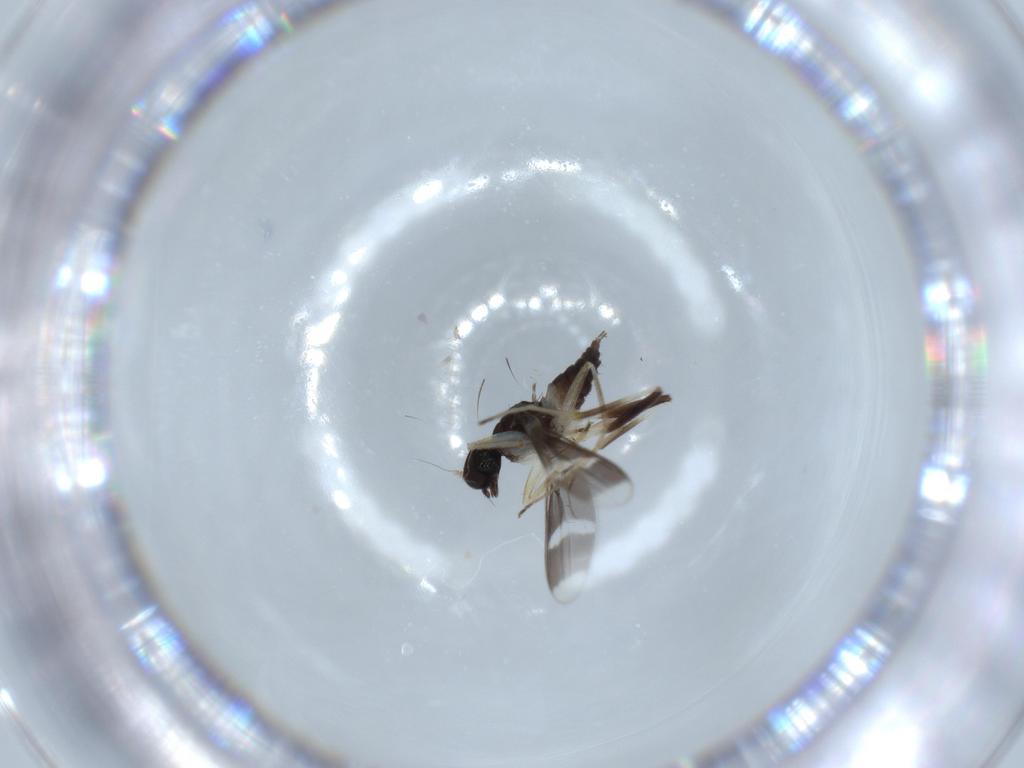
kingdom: Animalia
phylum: Arthropoda
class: Insecta
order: Diptera
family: Hybotidae
